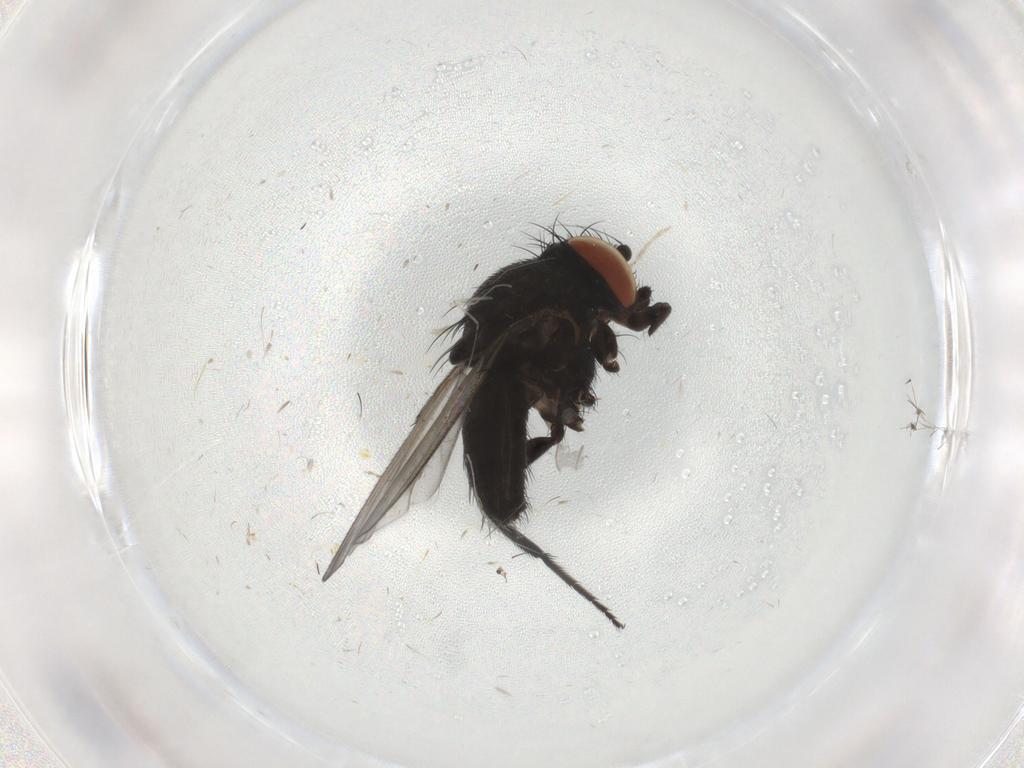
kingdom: Animalia
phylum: Arthropoda
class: Insecta
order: Diptera
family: Milichiidae
